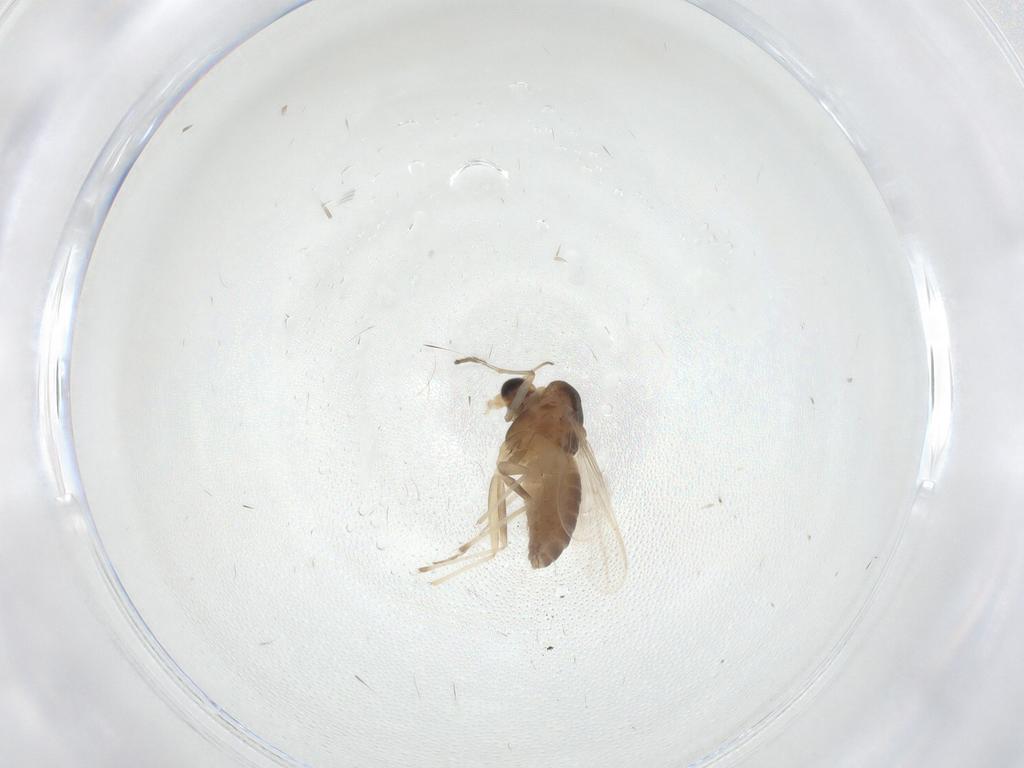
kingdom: Animalia
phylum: Arthropoda
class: Insecta
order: Diptera
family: Chironomidae
